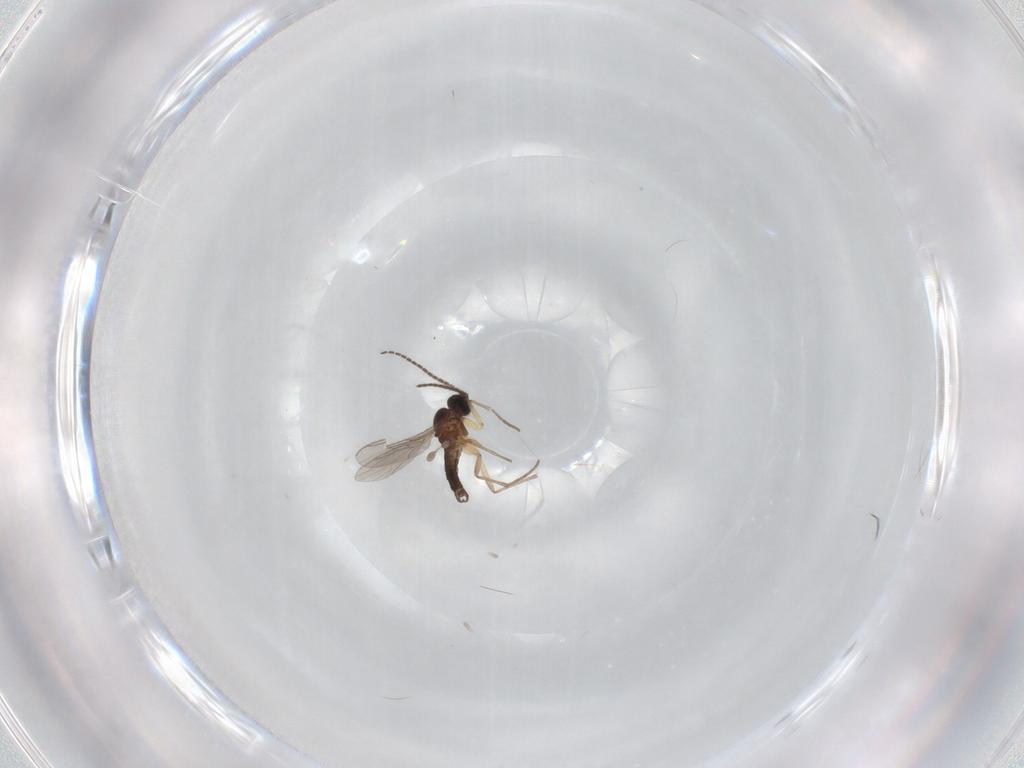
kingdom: Animalia
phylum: Arthropoda
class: Insecta
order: Diptera
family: Sciaridae
